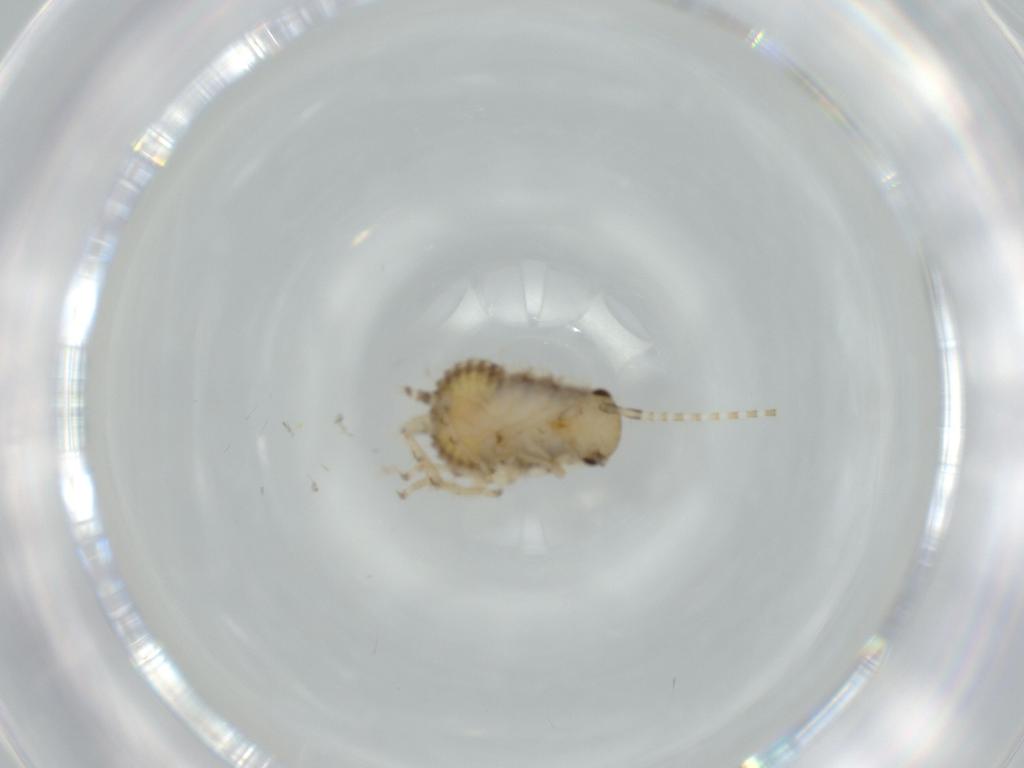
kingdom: Animalia
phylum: Arthropoda
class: Insecta
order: Blattodea
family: Ectobiidae
